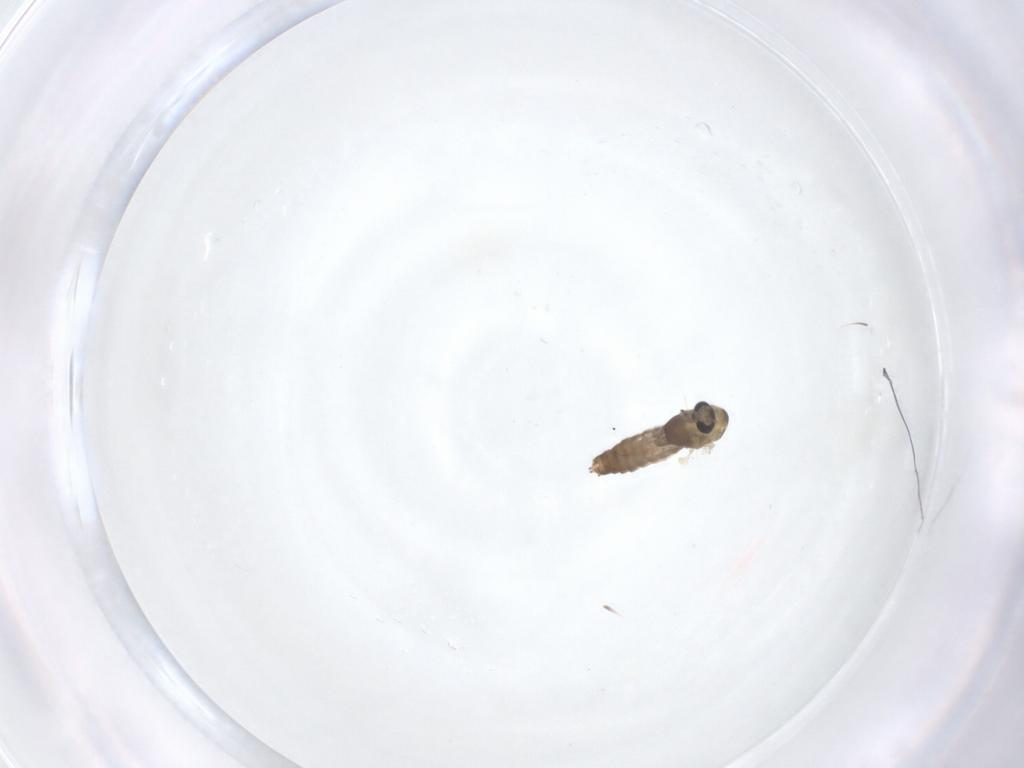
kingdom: Animalia
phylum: Arthropoda
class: Insecta
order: Diptera
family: Chironomidae
